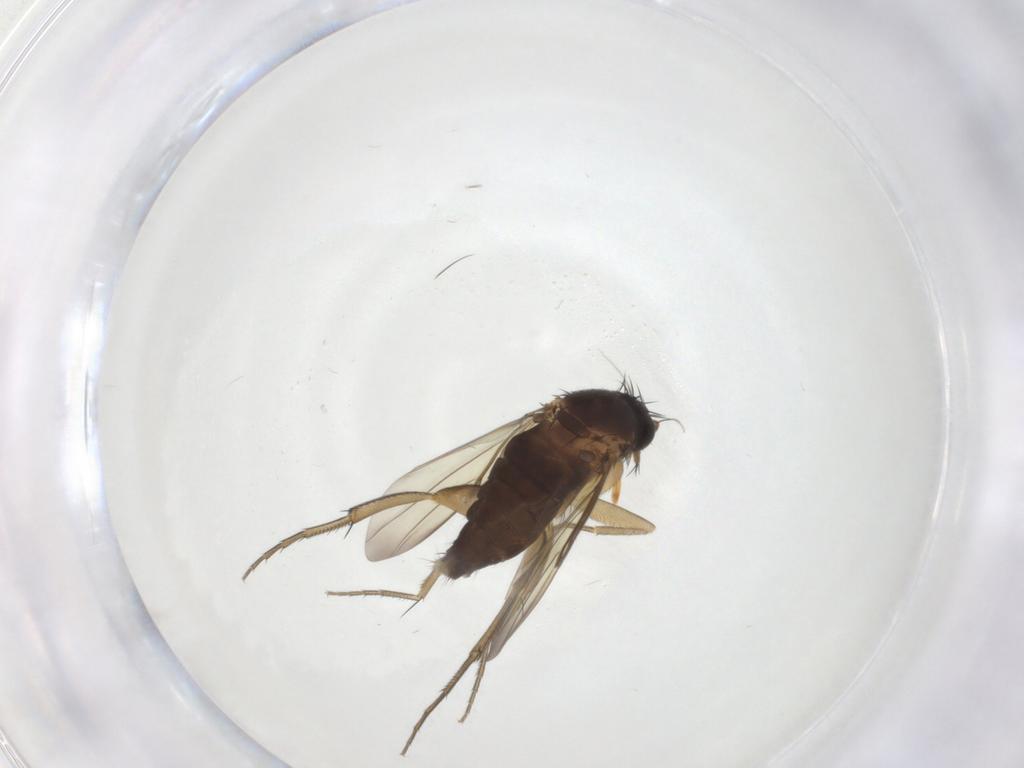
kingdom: Animalia
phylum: Arthropoda
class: Insecta
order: Diptera
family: Phoridae
